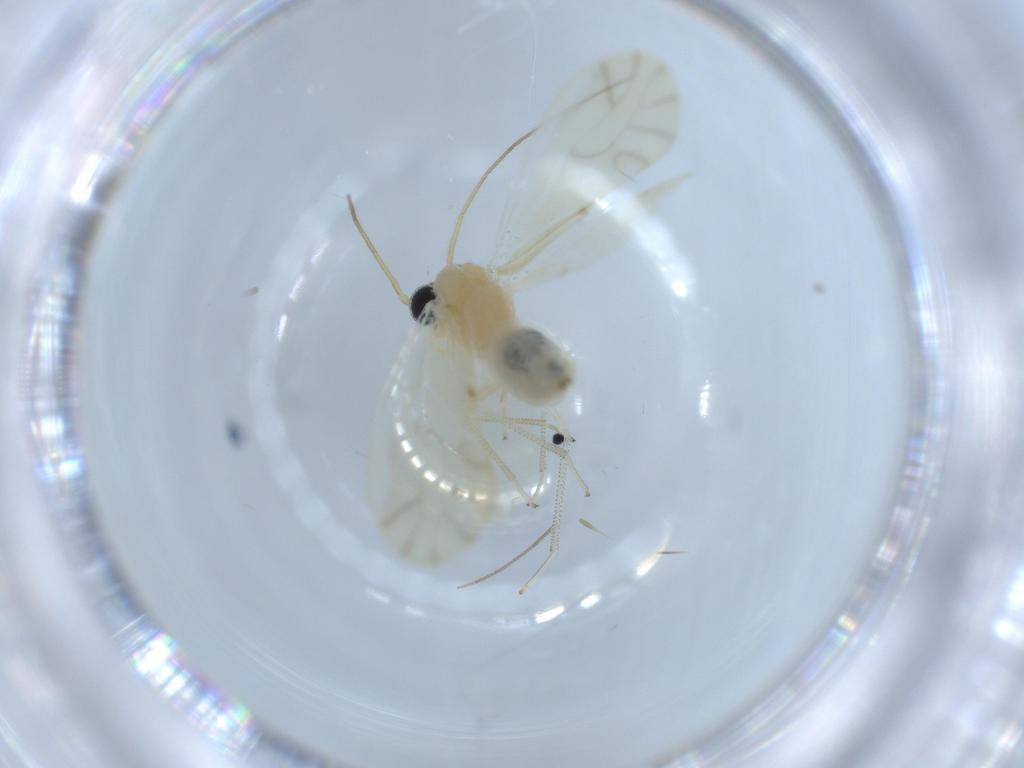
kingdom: Animalia
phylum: Arthropoda
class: Insecta
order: Psocodea
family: Caeciliusidae
